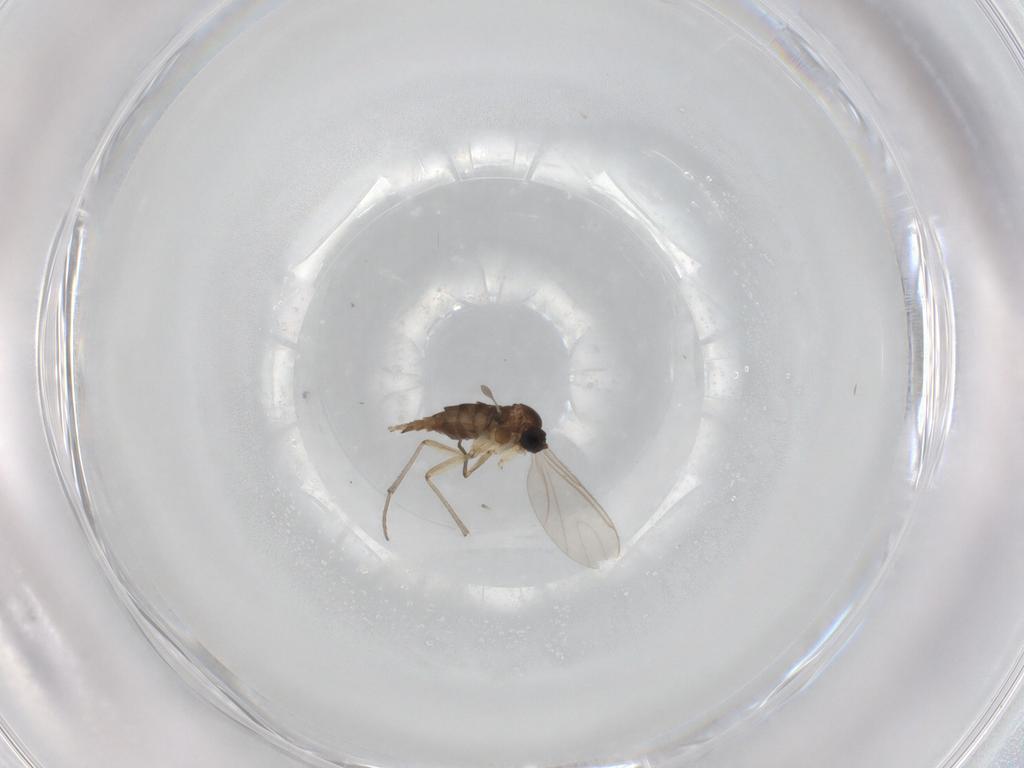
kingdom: Animalia
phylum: Arthropoda
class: Insecta
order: Diptera
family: Sciaridae
